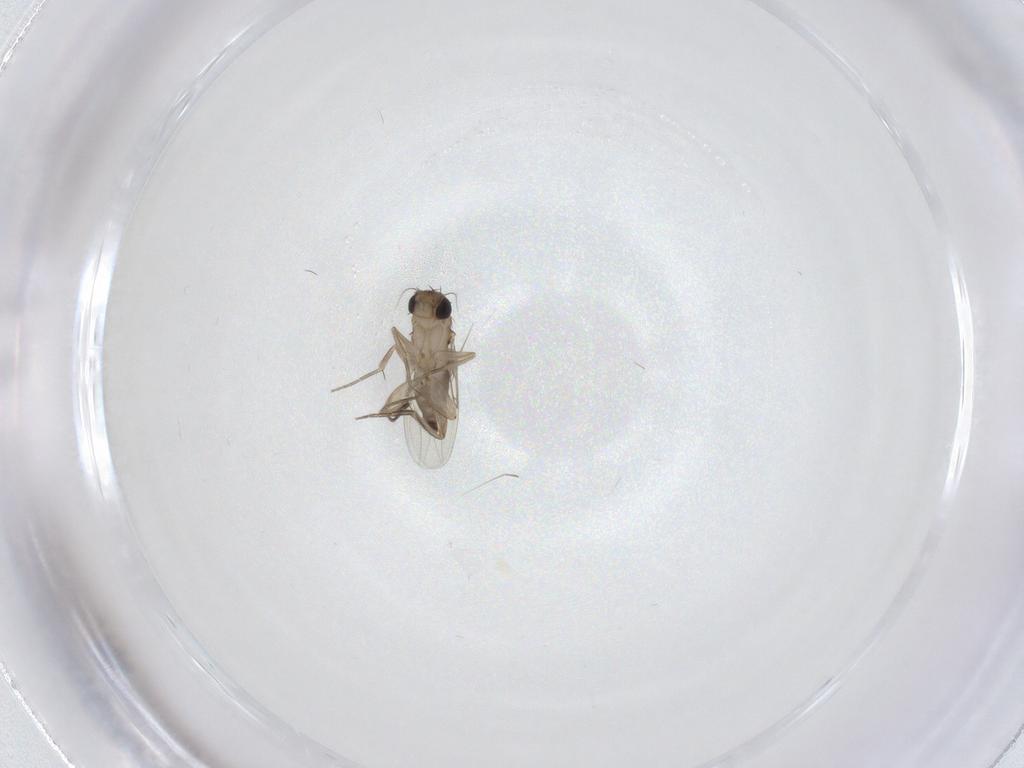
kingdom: Animalia
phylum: Arthropoda
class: Insecta
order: Diptera
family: Phoridae
